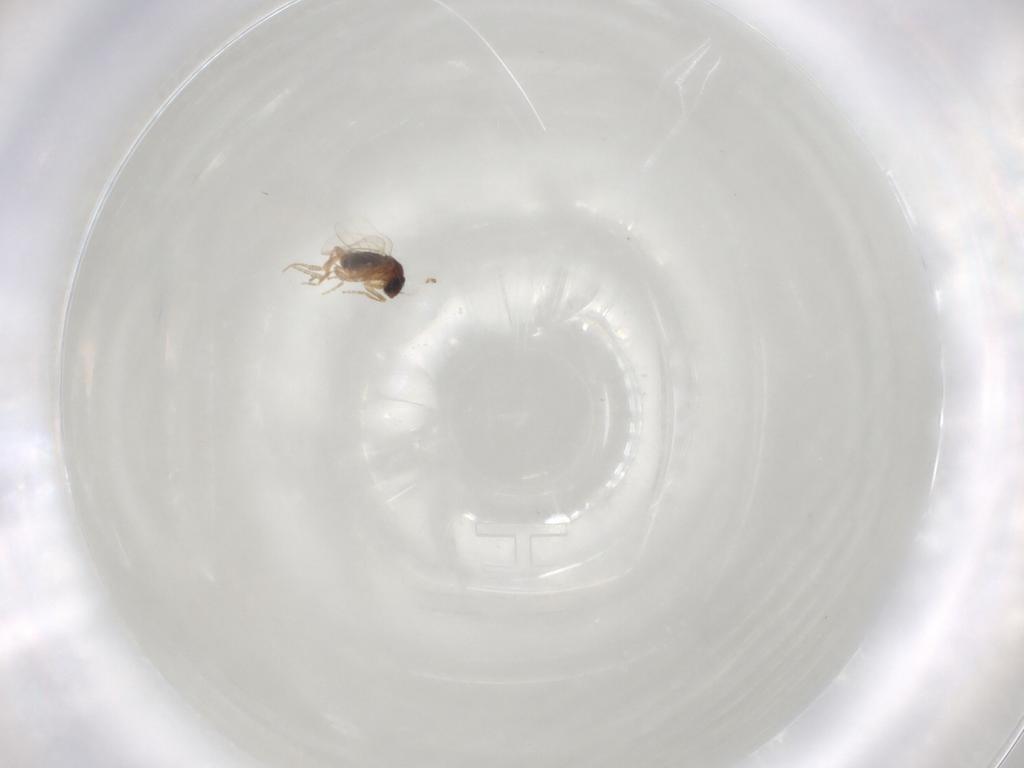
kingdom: Animalia
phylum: Arthropoda
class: Insecta
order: Diptera
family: Phoridae
